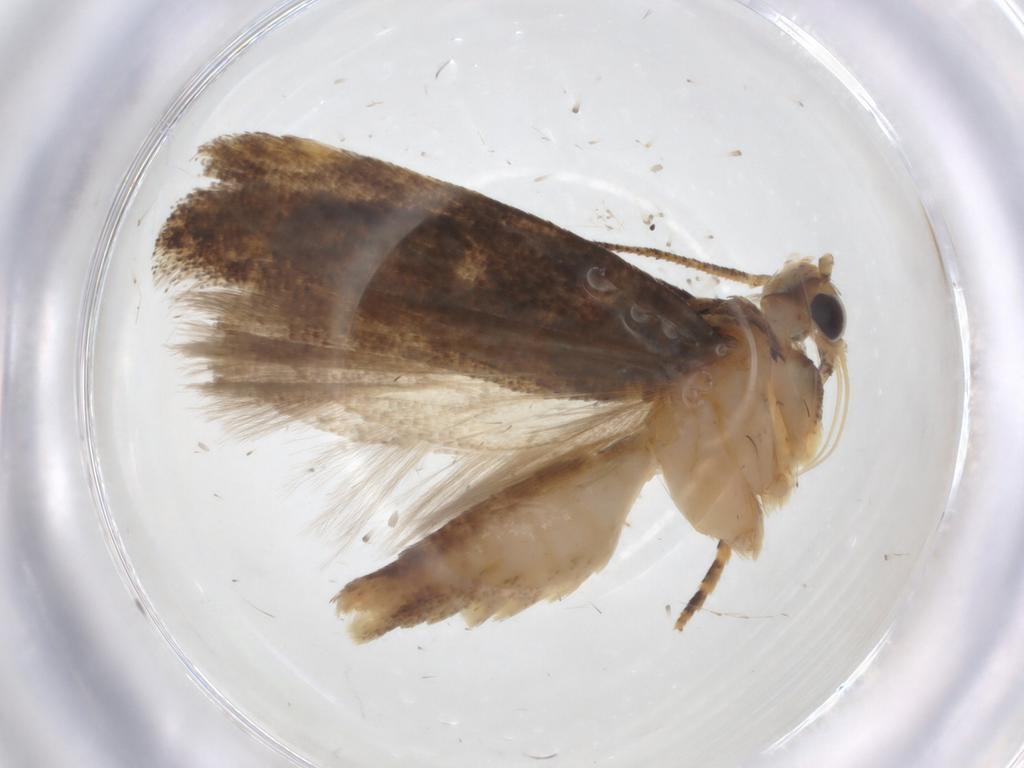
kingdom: Animalia
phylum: Arthropoda
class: Insecta
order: Lepidoptera
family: Gelechiidae
